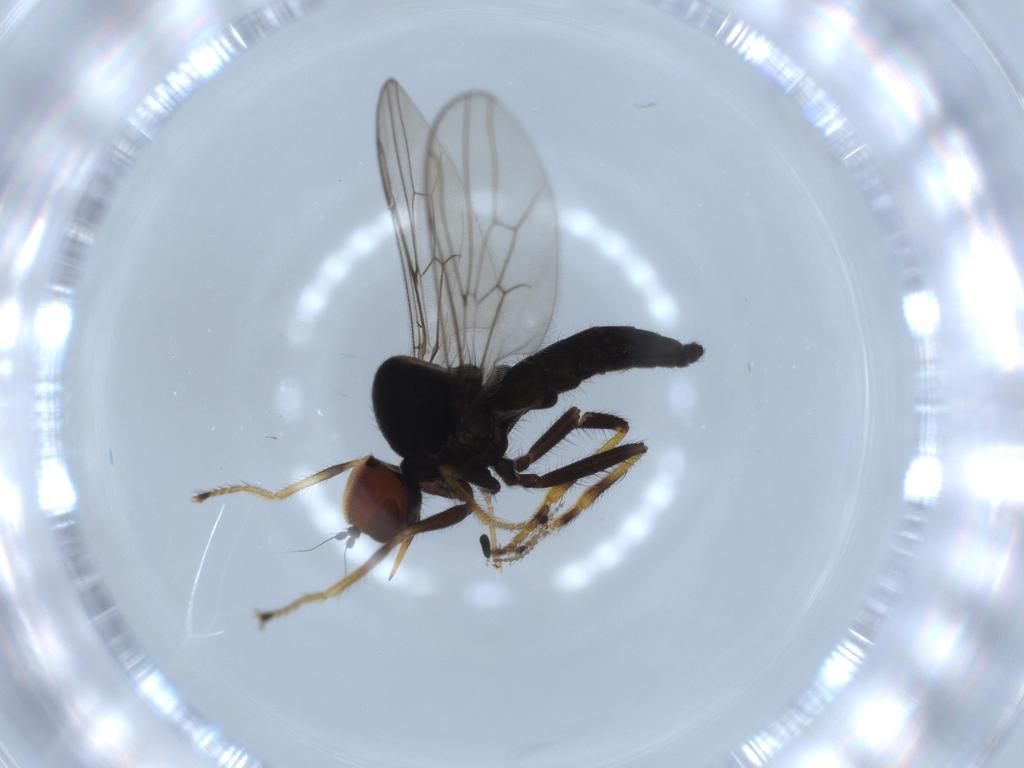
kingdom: Animalia
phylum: Arthropoda
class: Insecta
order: Diptera
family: Hybotidae
